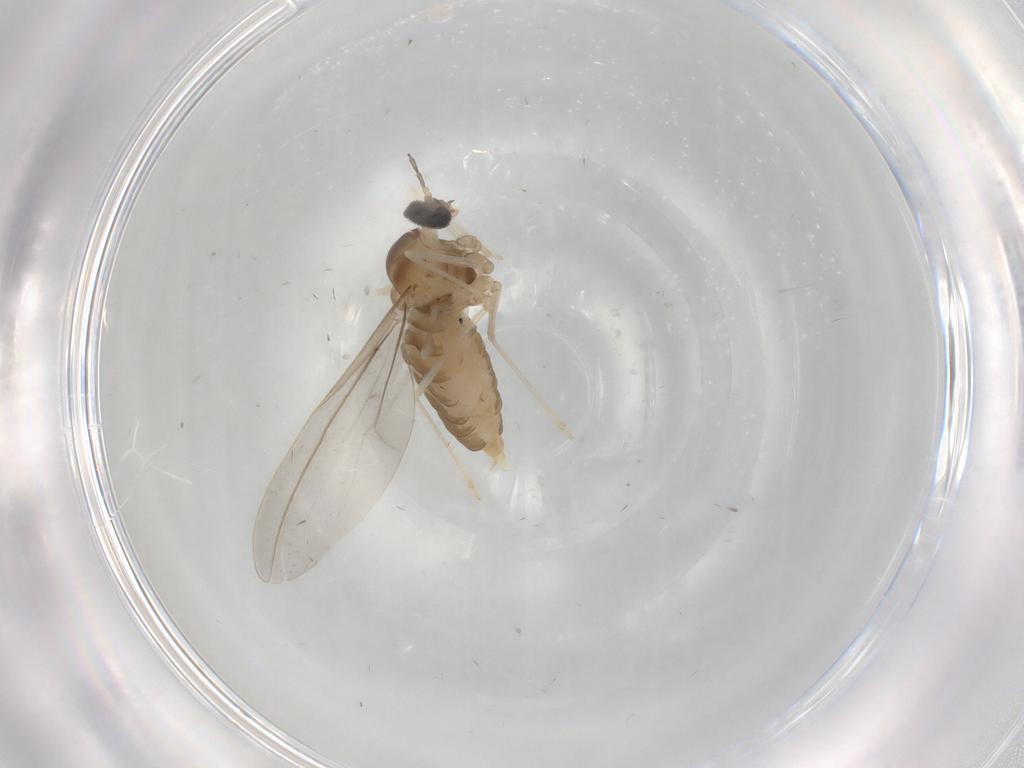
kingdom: Animalia
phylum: Arthropoda
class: Insecta
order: Diptera
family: Cecidomyiidae
